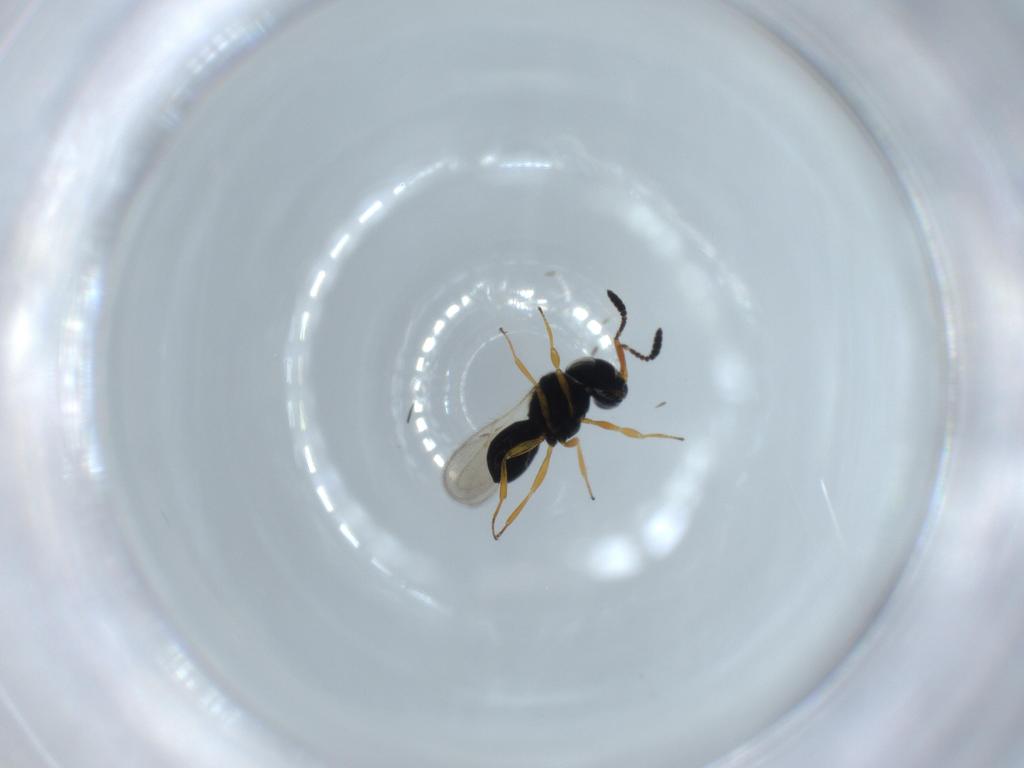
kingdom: Animalia
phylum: Arthropoda
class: Insecta
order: Hymenoptera
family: Scelionidae
